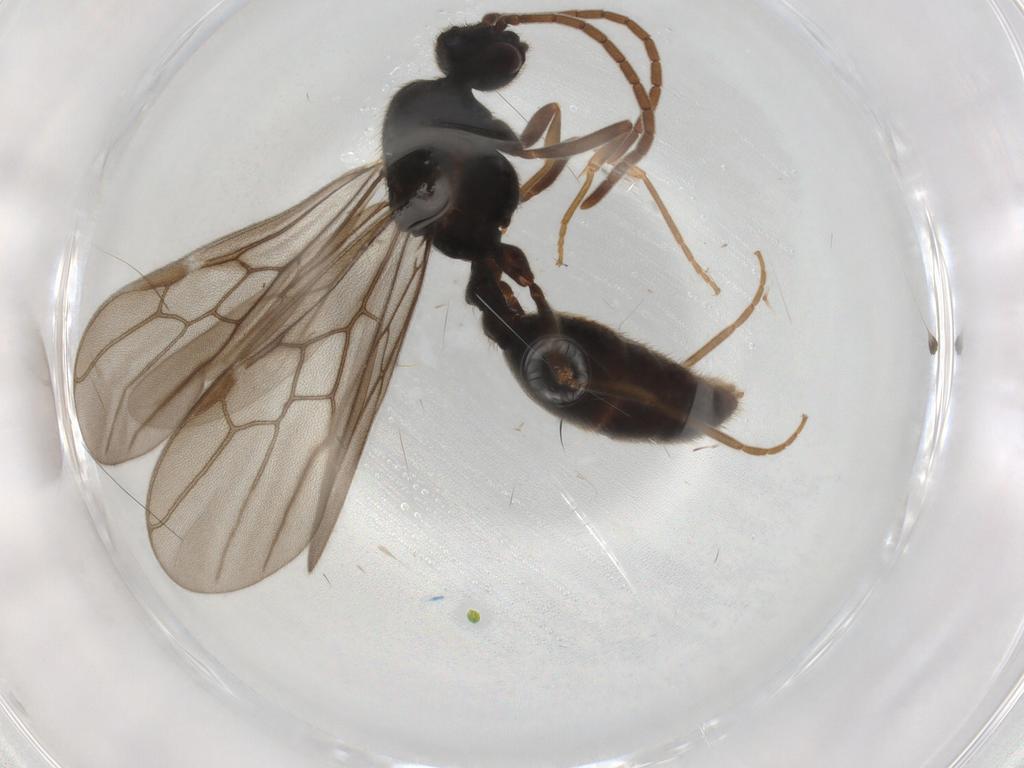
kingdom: Animalia
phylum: Arthropoda
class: Insecta
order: Hymenoptera
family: Formicidae
